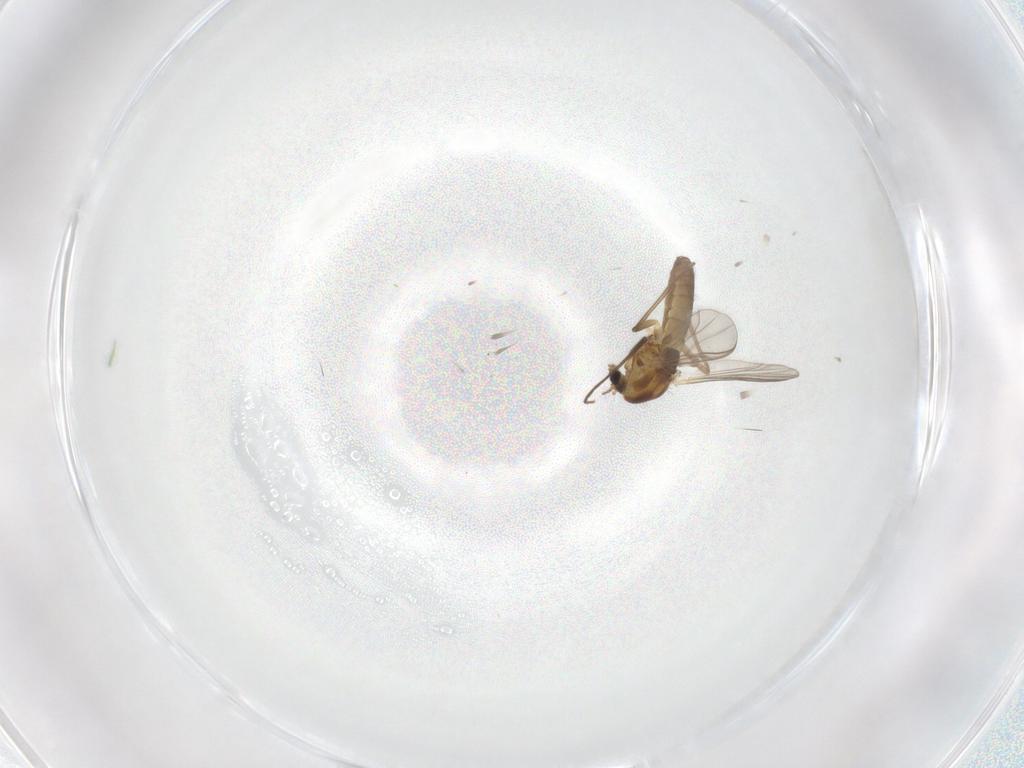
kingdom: Animalia
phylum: Arthropoda
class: Insecta
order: Diptera
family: Chironomidae
